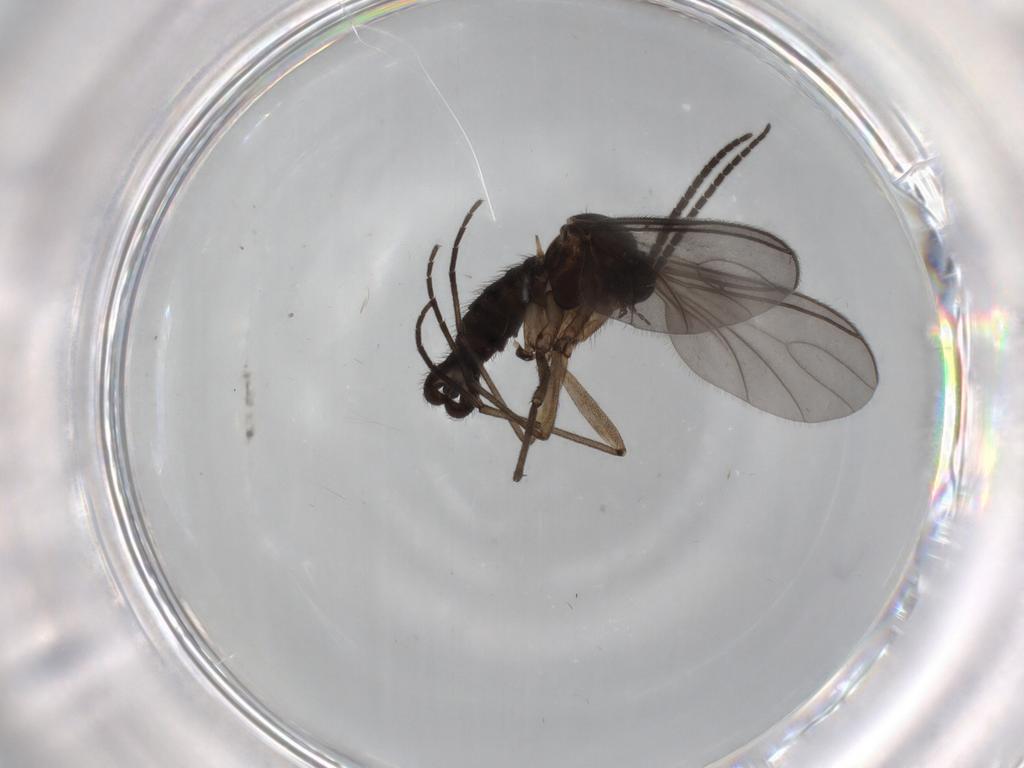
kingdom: Animalia
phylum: Arthropoda
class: Insecta
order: Diptera
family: Sciaridae
